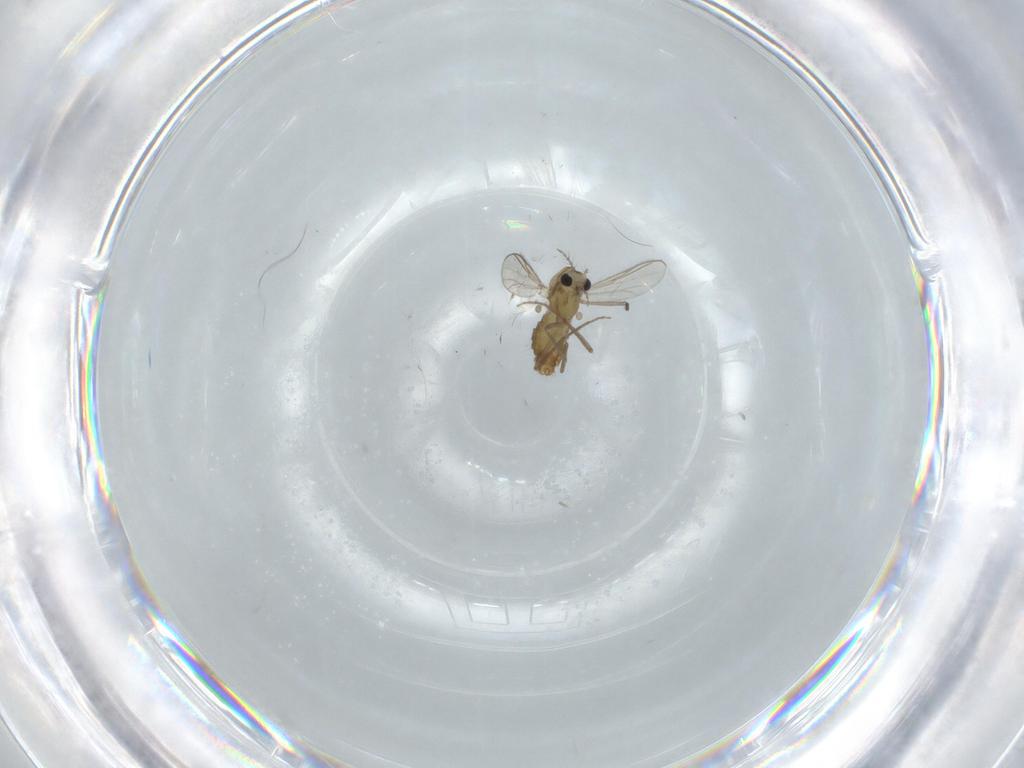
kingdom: Animalia
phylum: Arthropoda
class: Insecta
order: Diptera
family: Chironomidae
